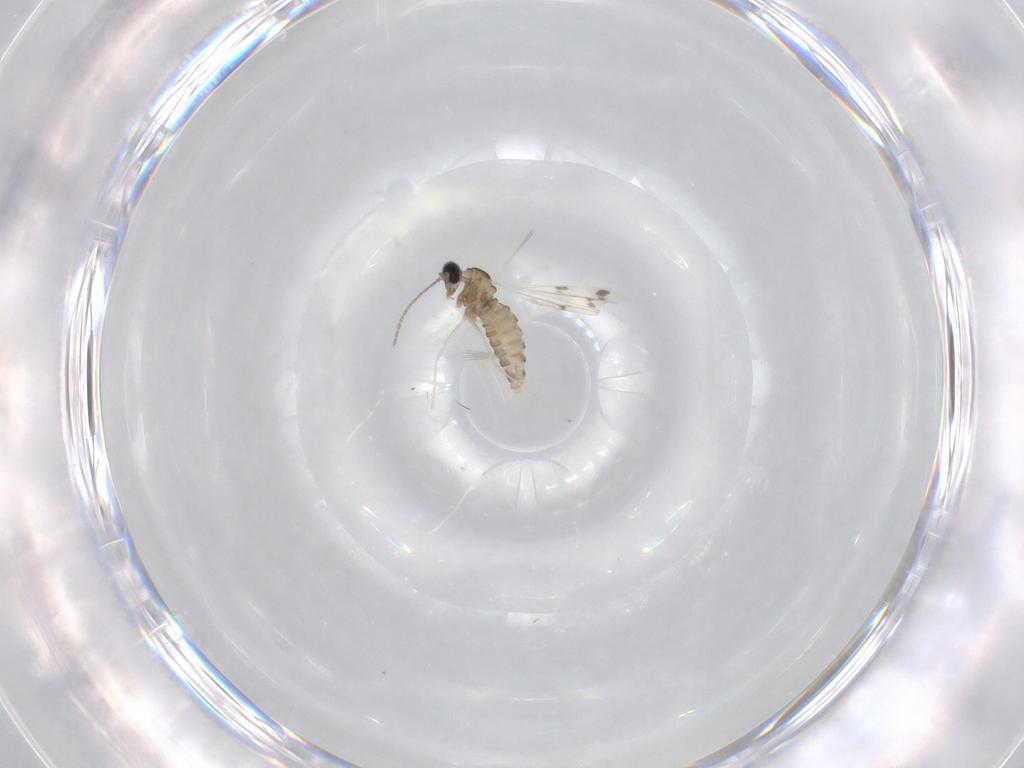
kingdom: Animalia
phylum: Arthropoda
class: Insecta
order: Diptera
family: Cecidomyiidae
